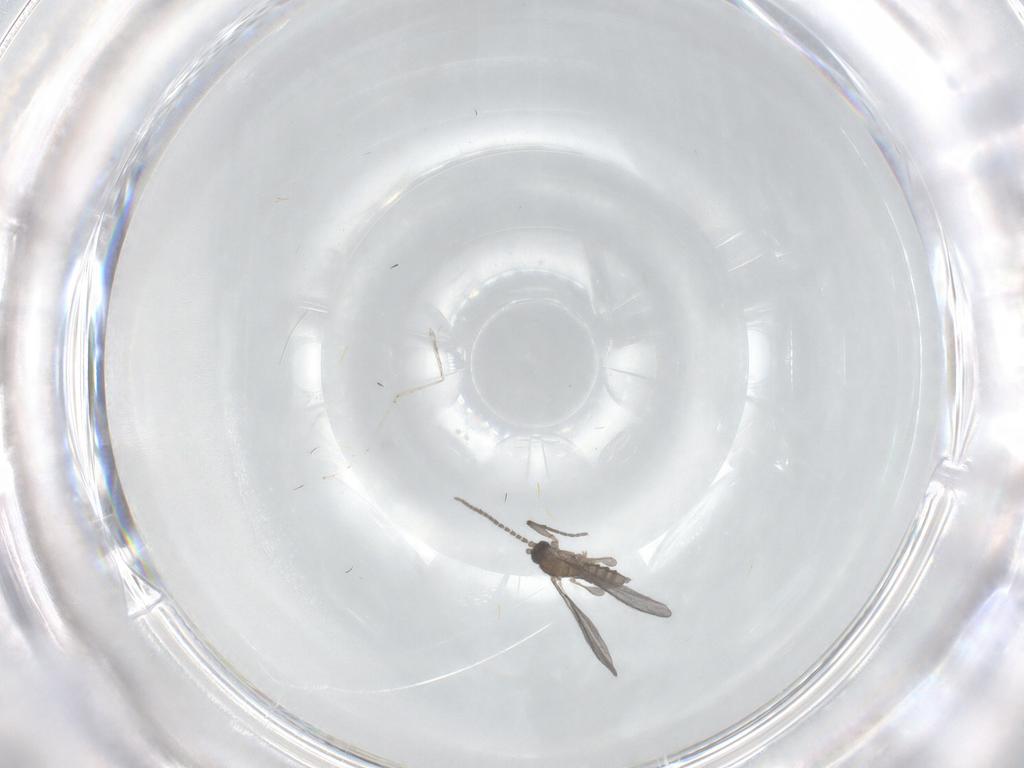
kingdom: Animalia
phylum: Arthropoda
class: Insecta
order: Diptera
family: Sciaridae
